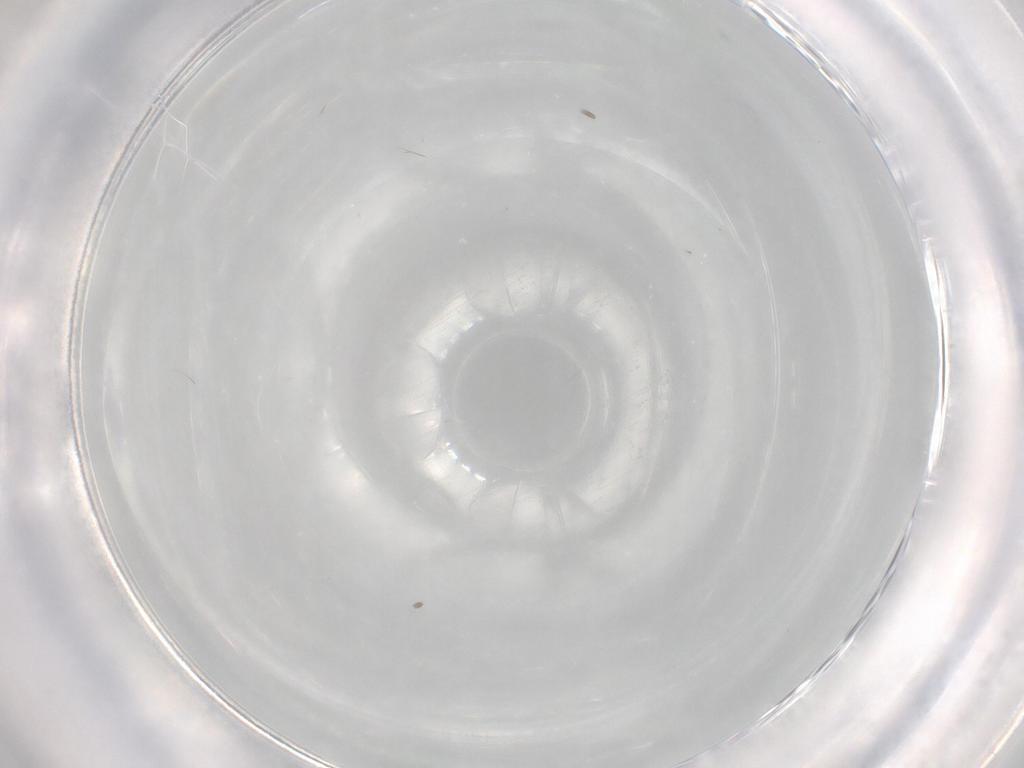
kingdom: Animalia
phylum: Arthropoda
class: Insecta
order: Diptera
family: Phoridae
